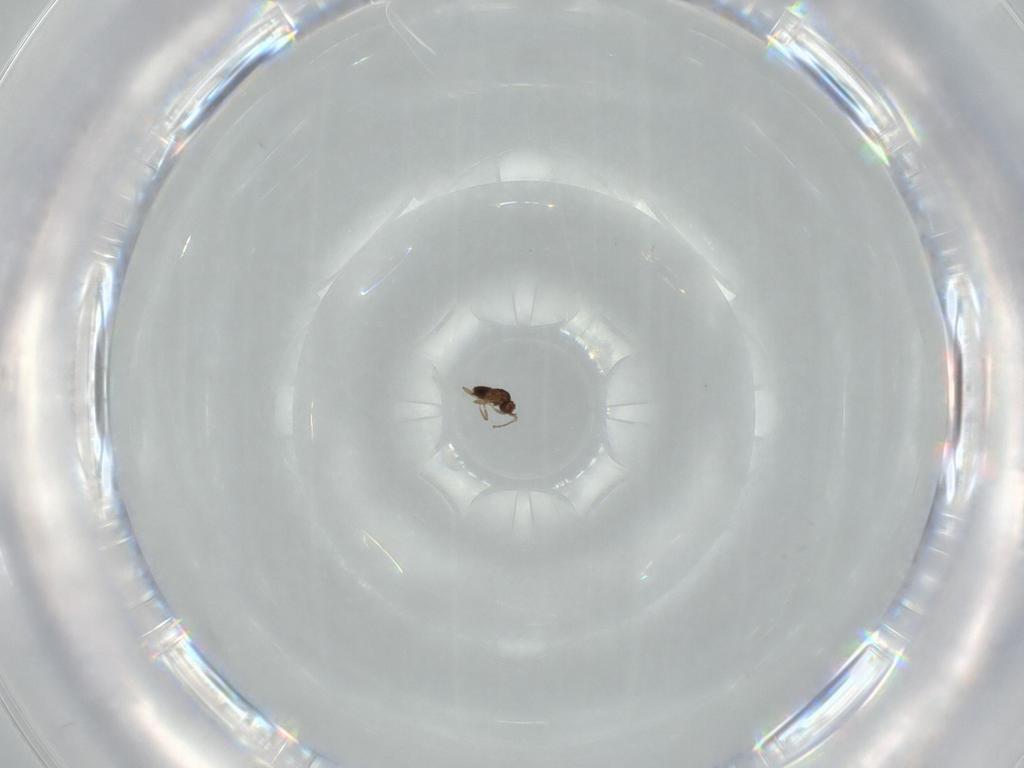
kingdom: Animalia
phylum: Arthropoda
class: Insecta
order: Hymenoptera
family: Mymaridae
